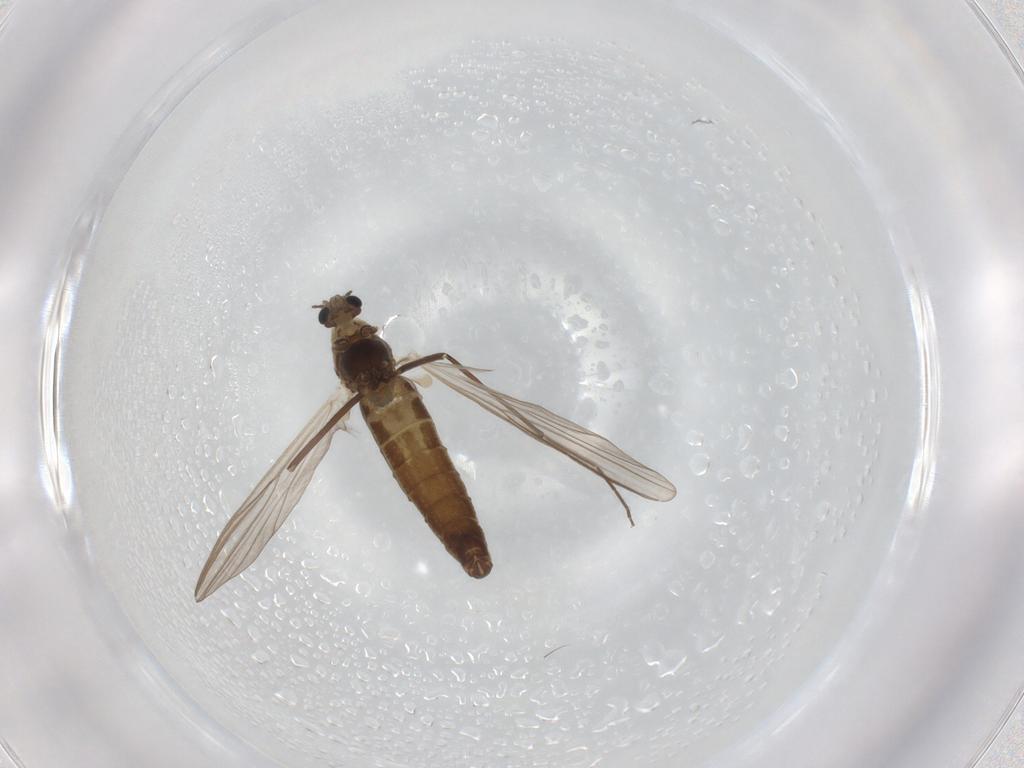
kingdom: Animalia
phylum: Arthropoda
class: Insecta
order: Diptera
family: Chironomidae
